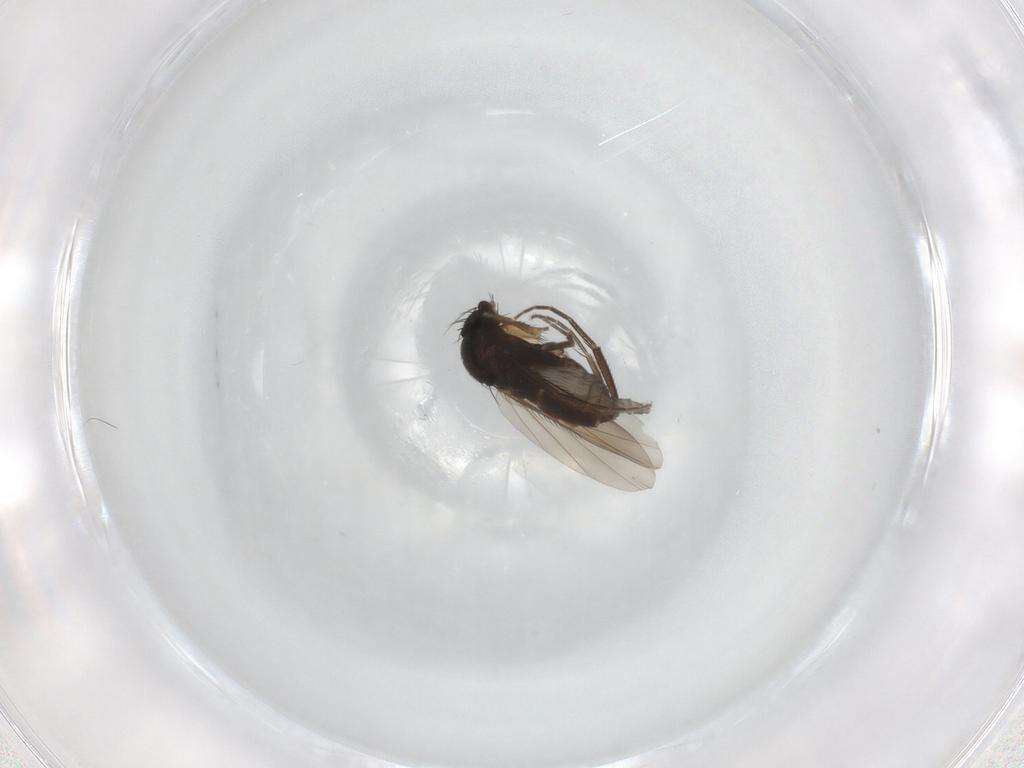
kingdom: Animalia
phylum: Arthropoda
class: Insecta
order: Diptera
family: Phoridae
